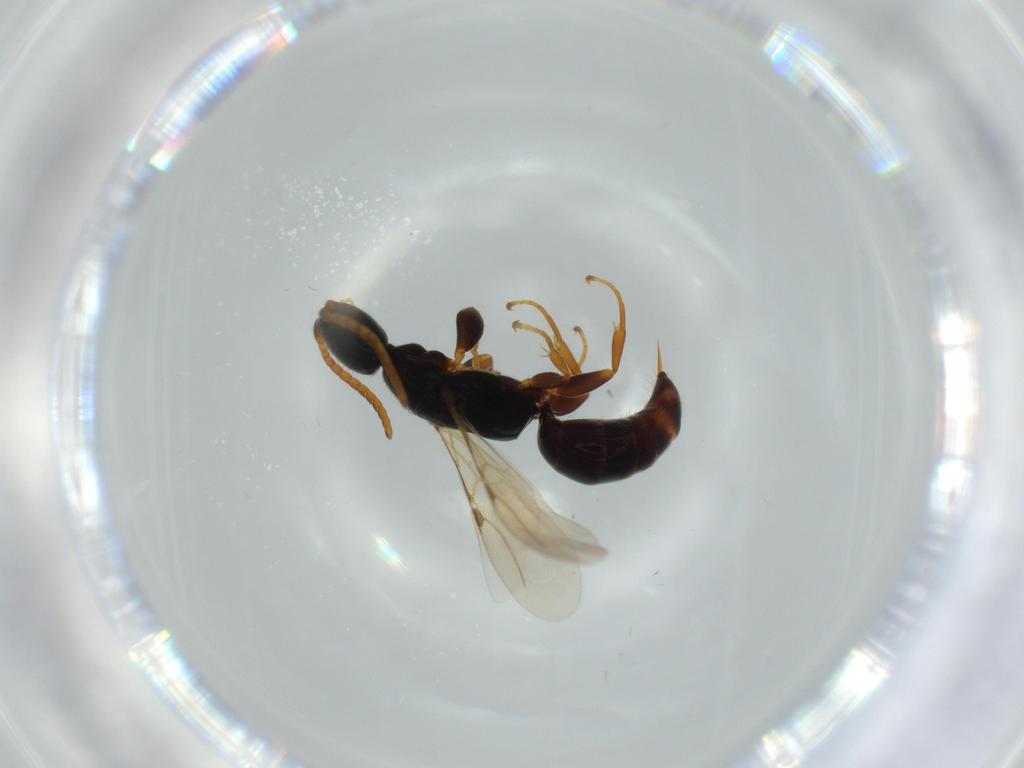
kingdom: Animalia
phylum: Arthropoda
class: Insecta
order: Hymenoptera
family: Bethylidae
